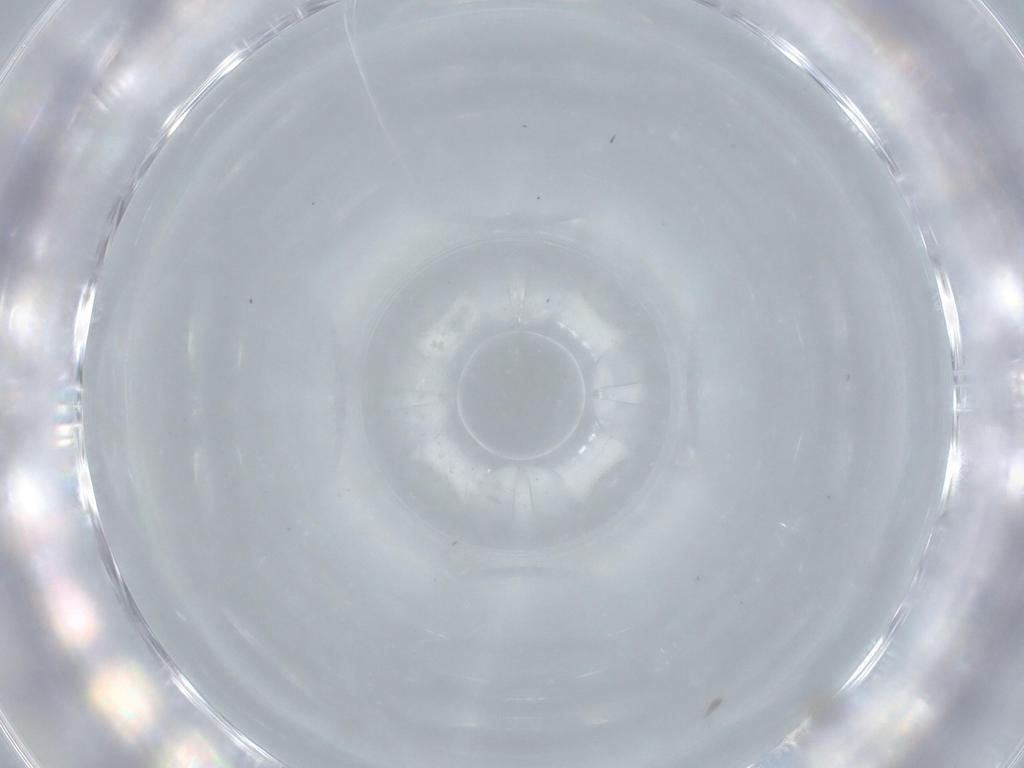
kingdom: Animalia
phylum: Arthropoda
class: Insecta
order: Hymenoptera
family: Mymaridae
